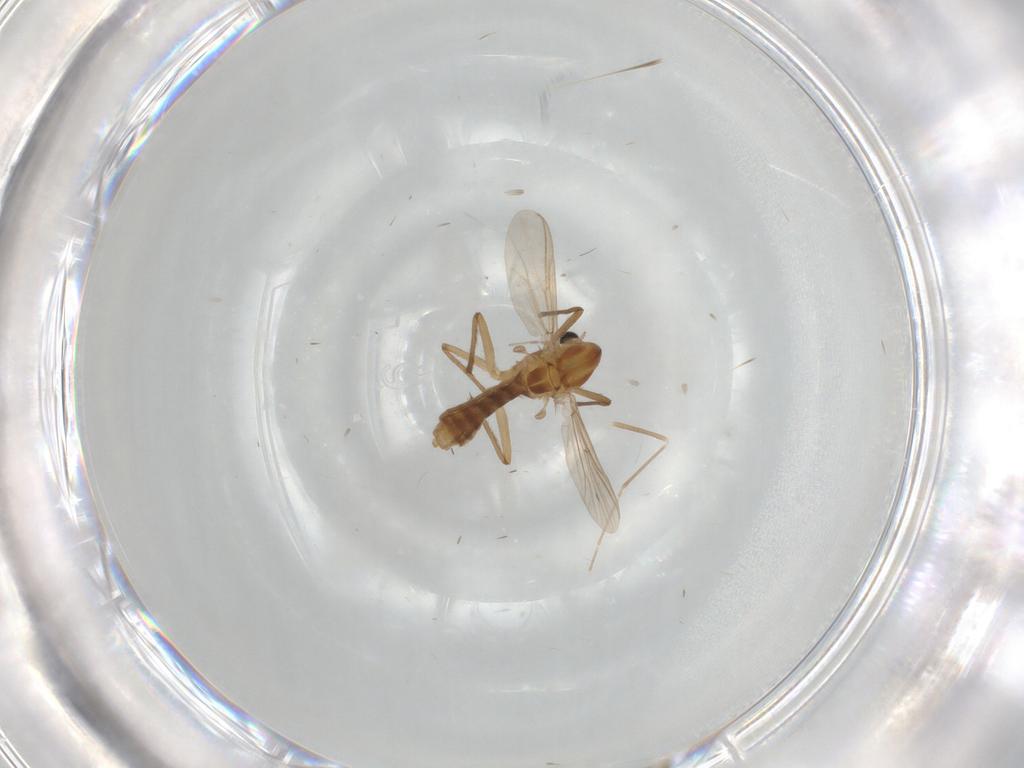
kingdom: Animalia
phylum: Arthropoda
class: Insecta
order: Diptera
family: Chironomidae
